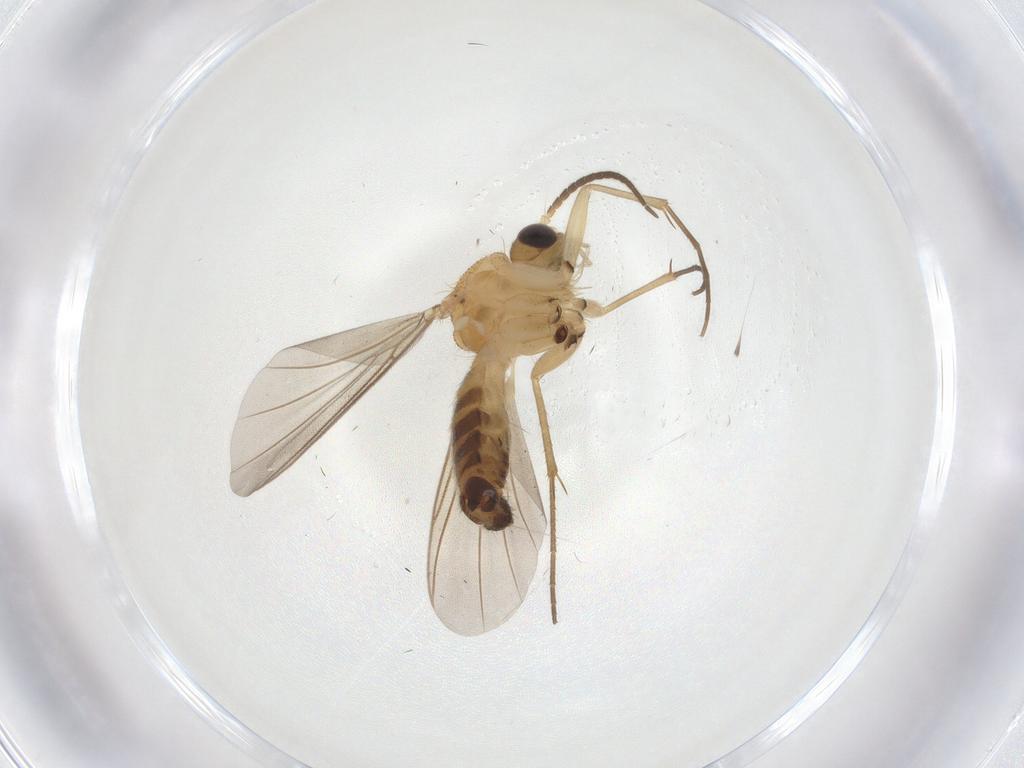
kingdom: Animalia
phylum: Arthropoda
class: Insecta
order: Diptera
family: Mycetophilidae
